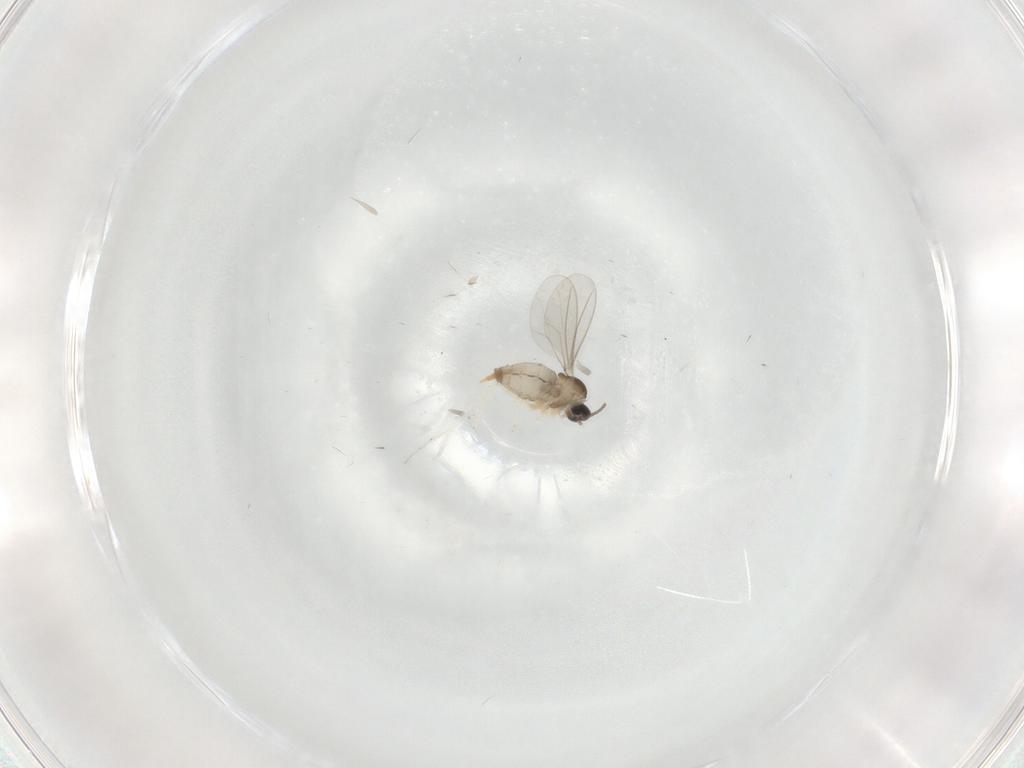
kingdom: Animalia
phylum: Arthropoda
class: Insecta
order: Diptera
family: Cecidomyiidae
